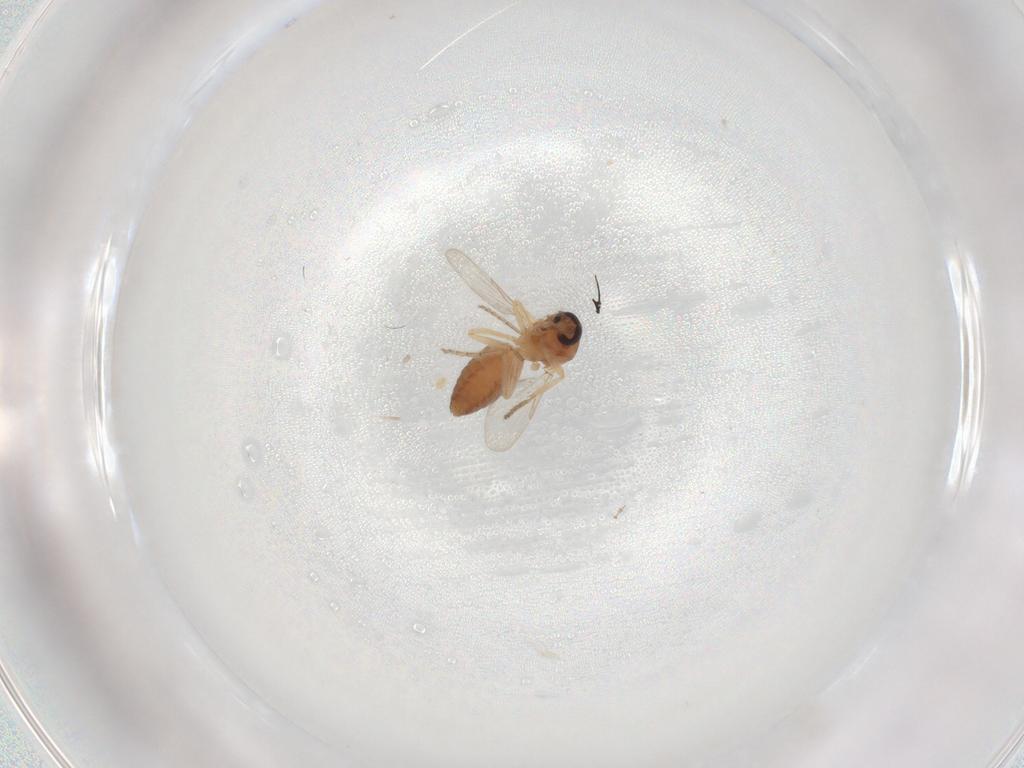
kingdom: Animalia
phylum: Arthropoda
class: Insecta
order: Diptera
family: Ceratopogonidae
